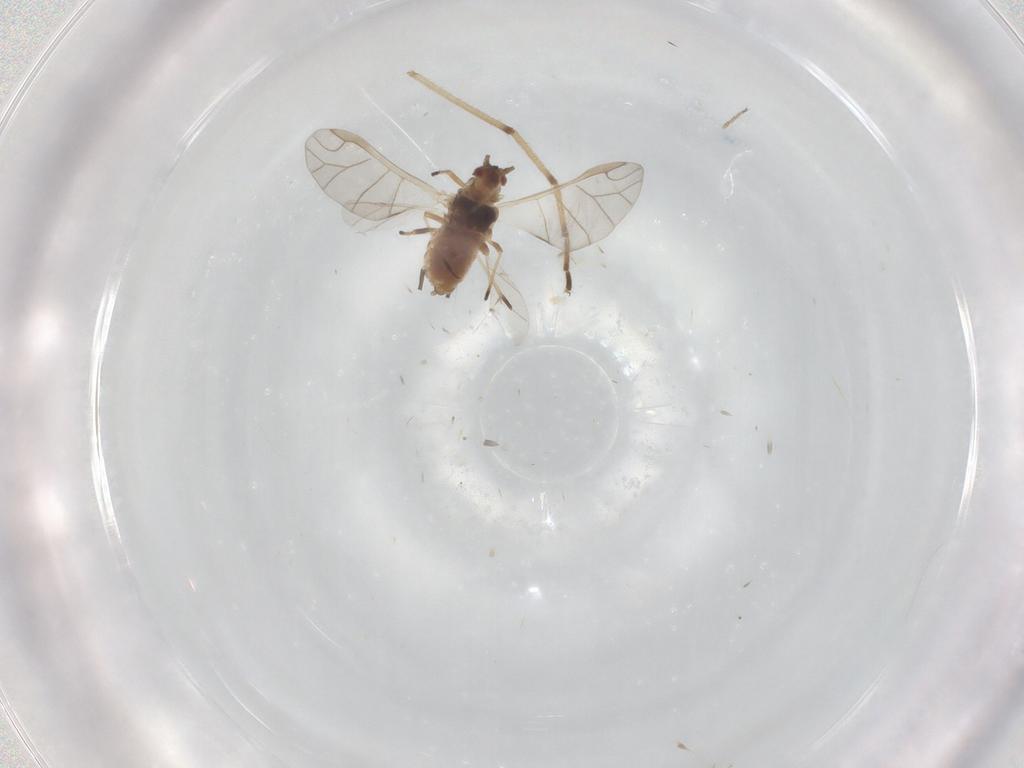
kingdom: Animalia
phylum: Arthropoda
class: Insecta
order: Hemiptera
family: Aphididae
